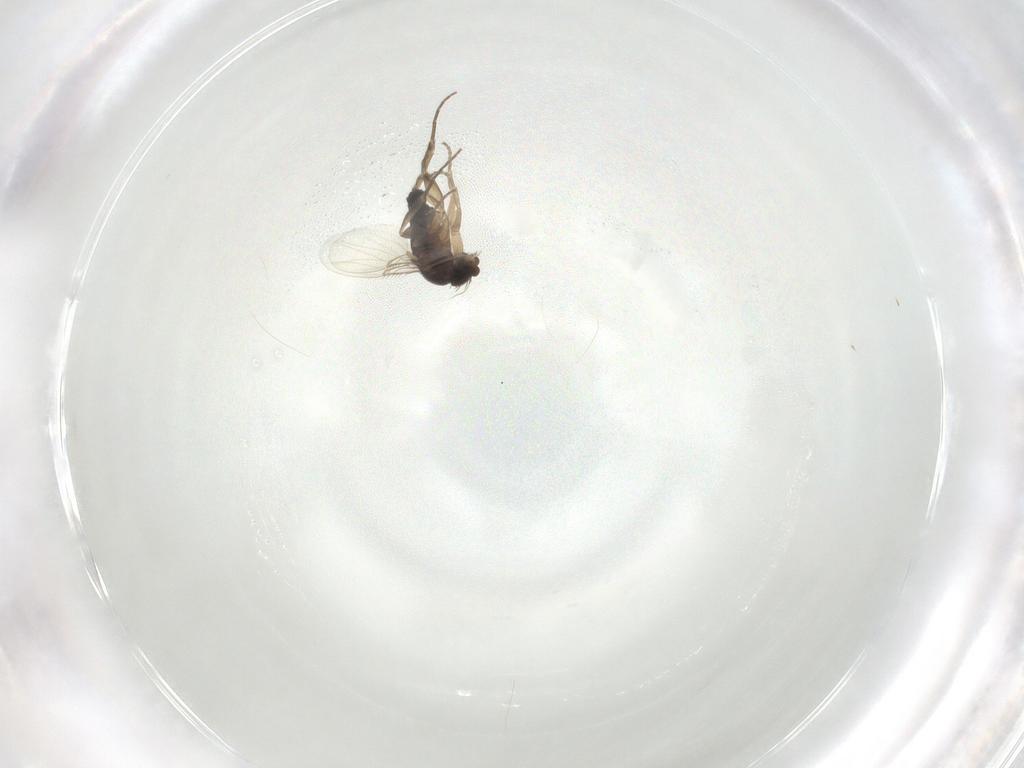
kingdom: Animalia
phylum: Arthropoda
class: Insecta
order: Diptera
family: Phoridae
